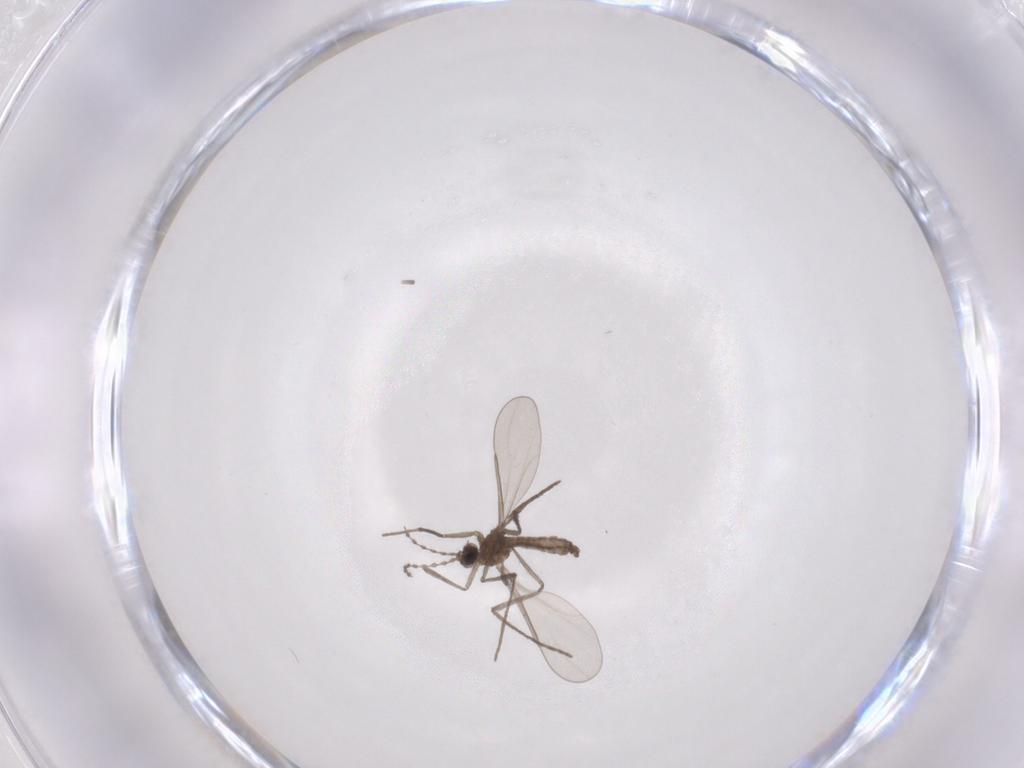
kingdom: Animalia
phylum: Arthropoda
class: Insecta
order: Diptera
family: Cecidomyiidae
